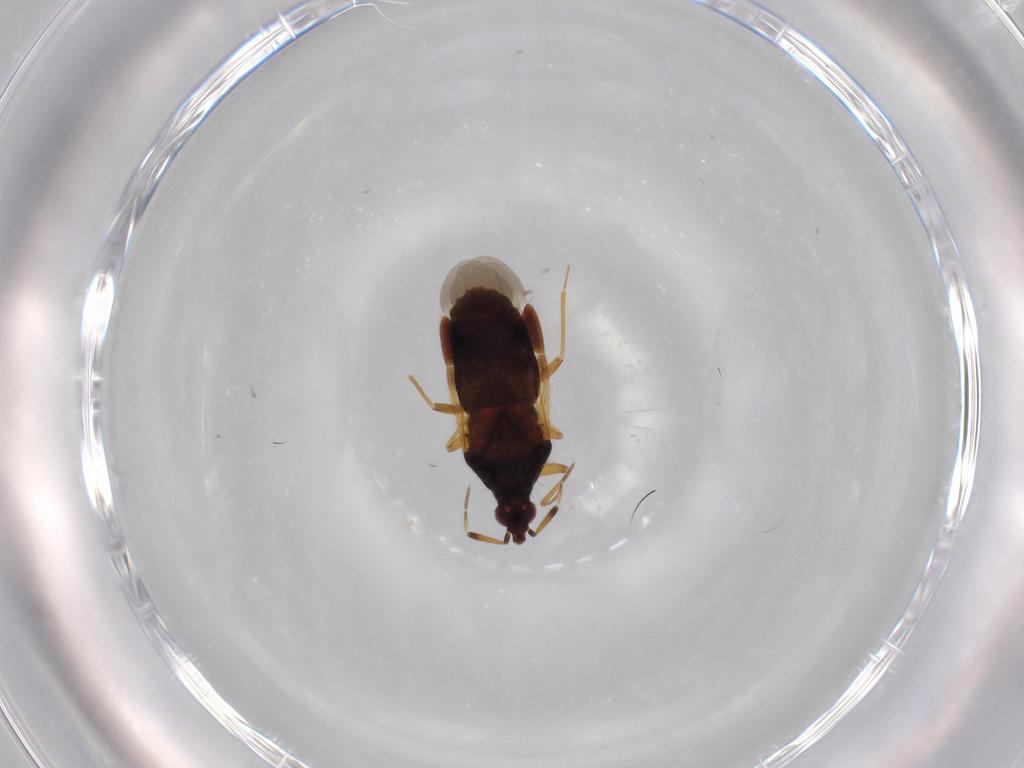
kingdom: Animalia
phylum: Arthropoda
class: Insecta
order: Hemiptera
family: Anthocoridae
